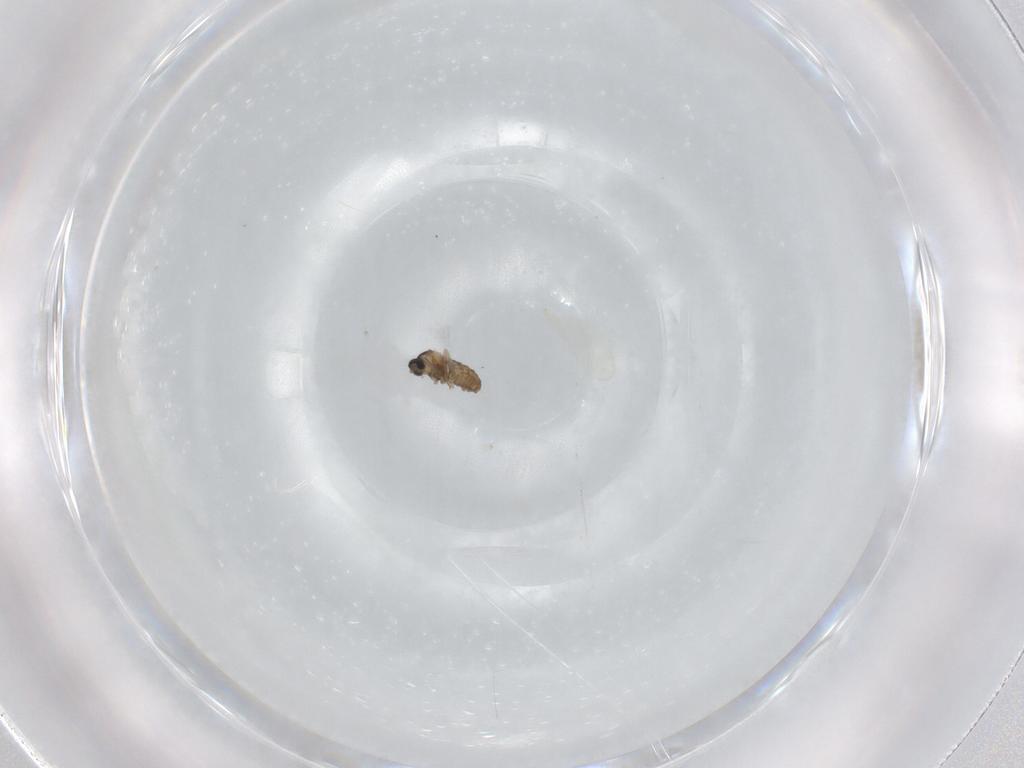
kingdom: Animalia
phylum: Arthropoda
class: Insecta
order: Diptera
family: Cecidomyiidae
